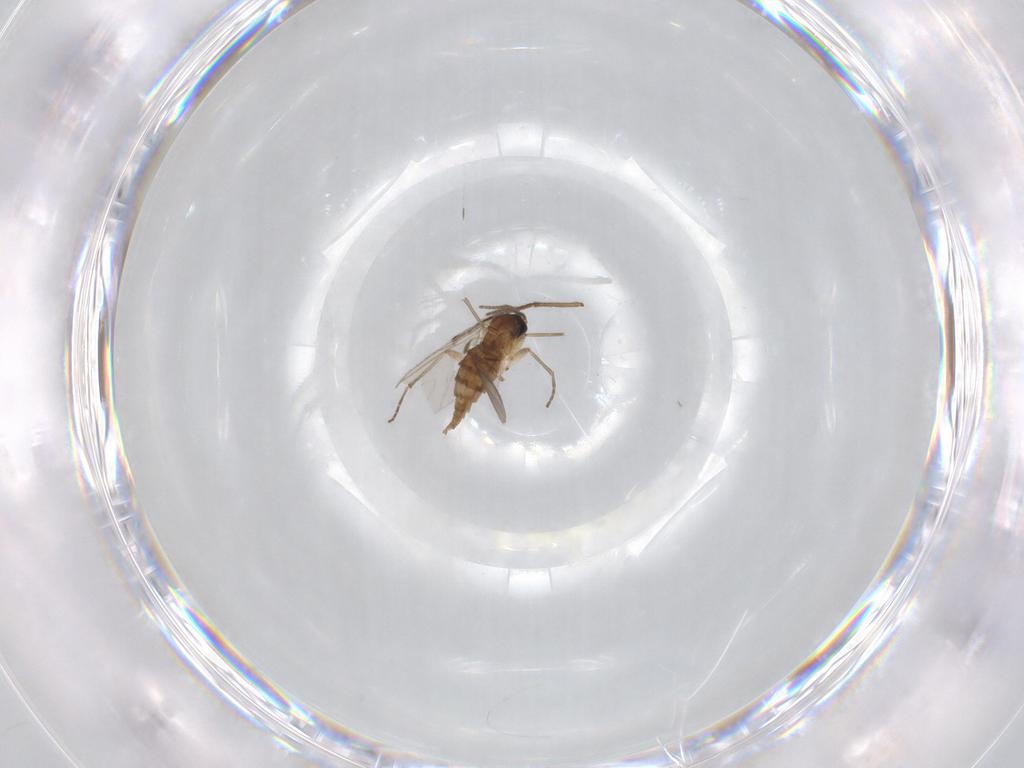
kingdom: Animalia
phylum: Arthropoda
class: Insecta
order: Diptera
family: Sciaridae
